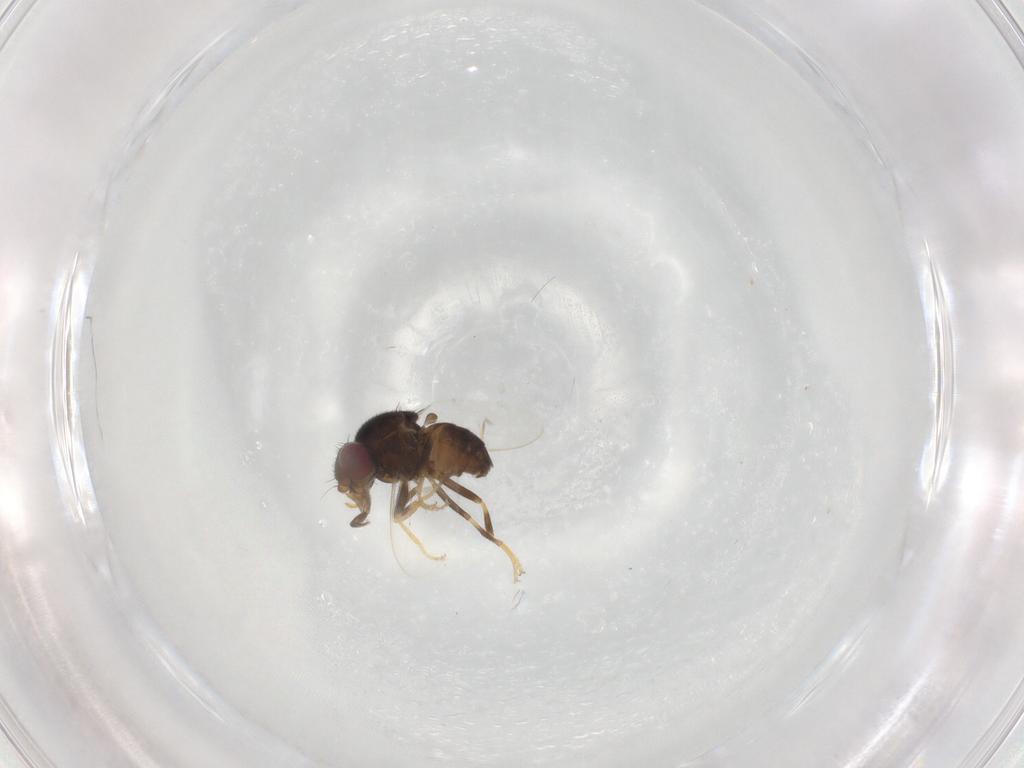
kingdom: Animalia
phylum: Arthropoda
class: Insecta
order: Diptera
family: Chloropidae
